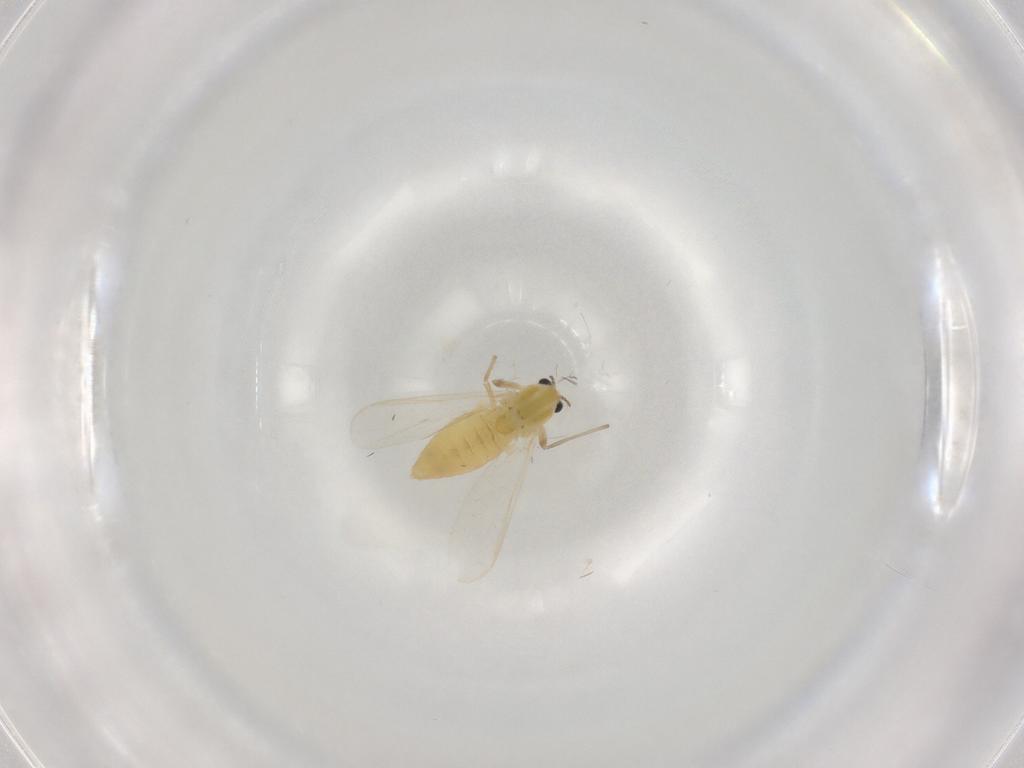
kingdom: Animalia
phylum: Arthropoda
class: Insecta
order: Diptera
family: Chironomidae
